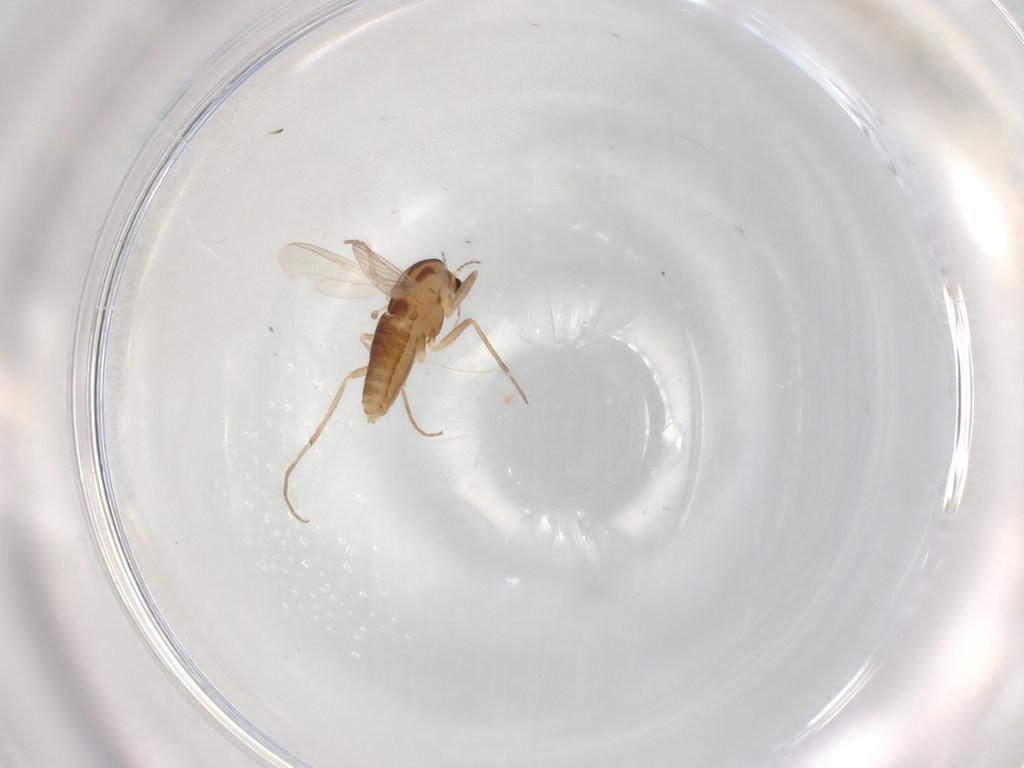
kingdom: Animalia
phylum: Arthropoda
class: Insecta
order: Diptera
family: Chironomidae
